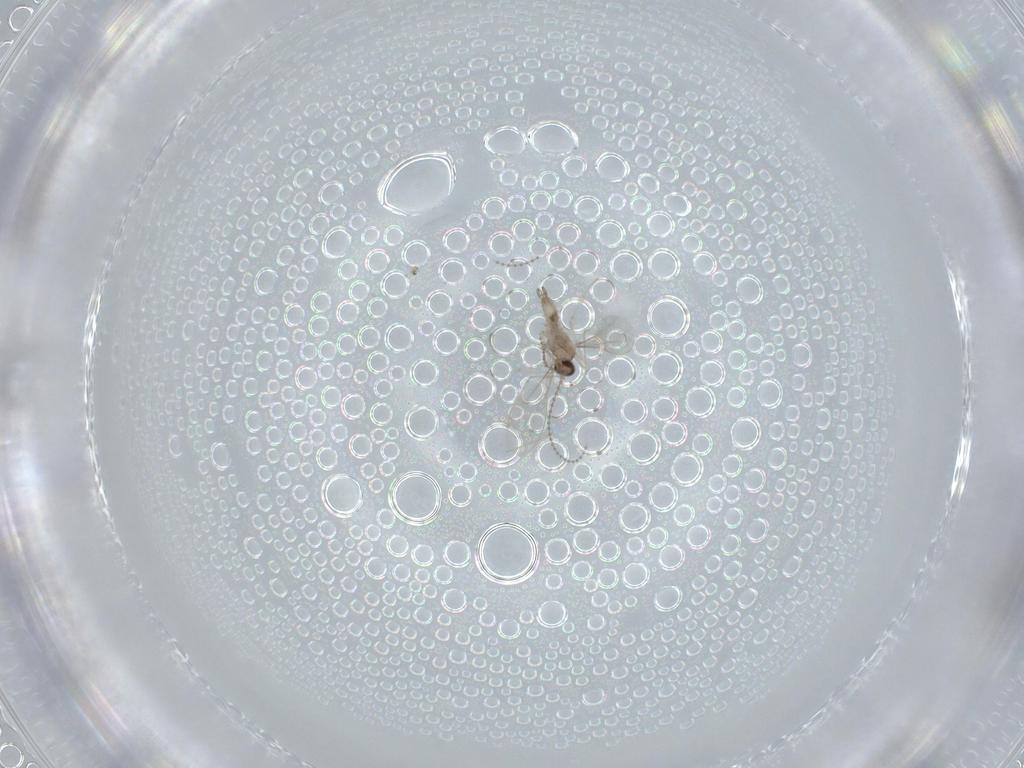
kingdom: Animalia
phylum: Arthropoda
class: Insecta
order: Diptera
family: Cecidomyiidae
